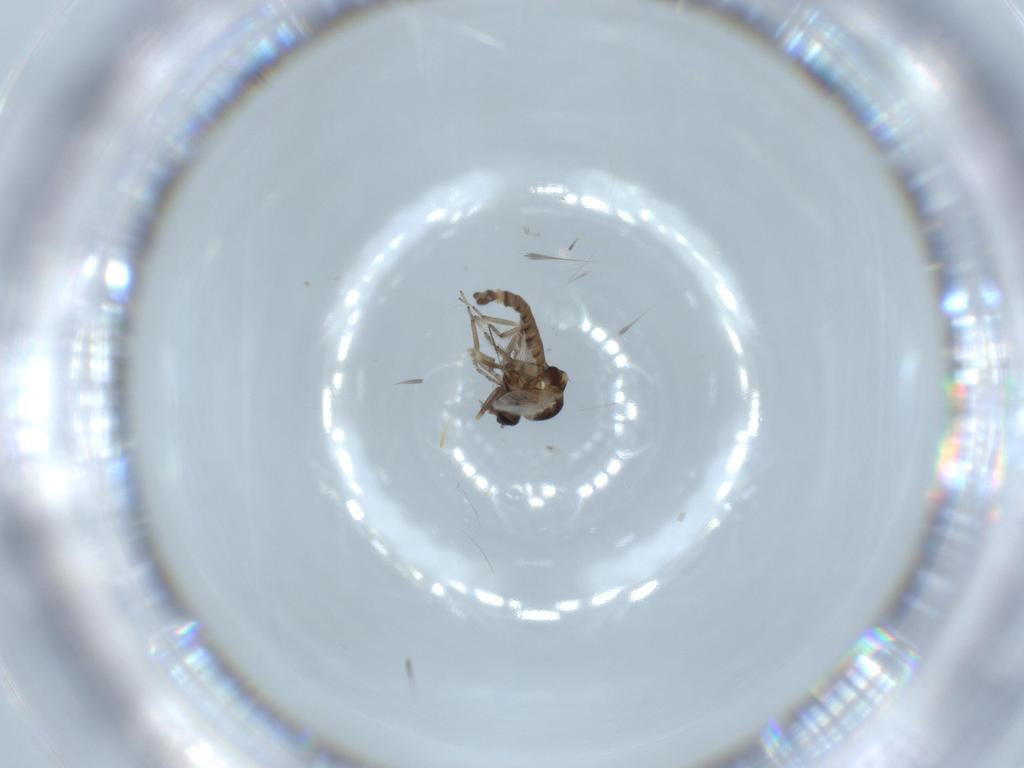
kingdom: Animalia
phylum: Arthropoda
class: Insecta
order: Diptera
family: Ceratopogonidae
